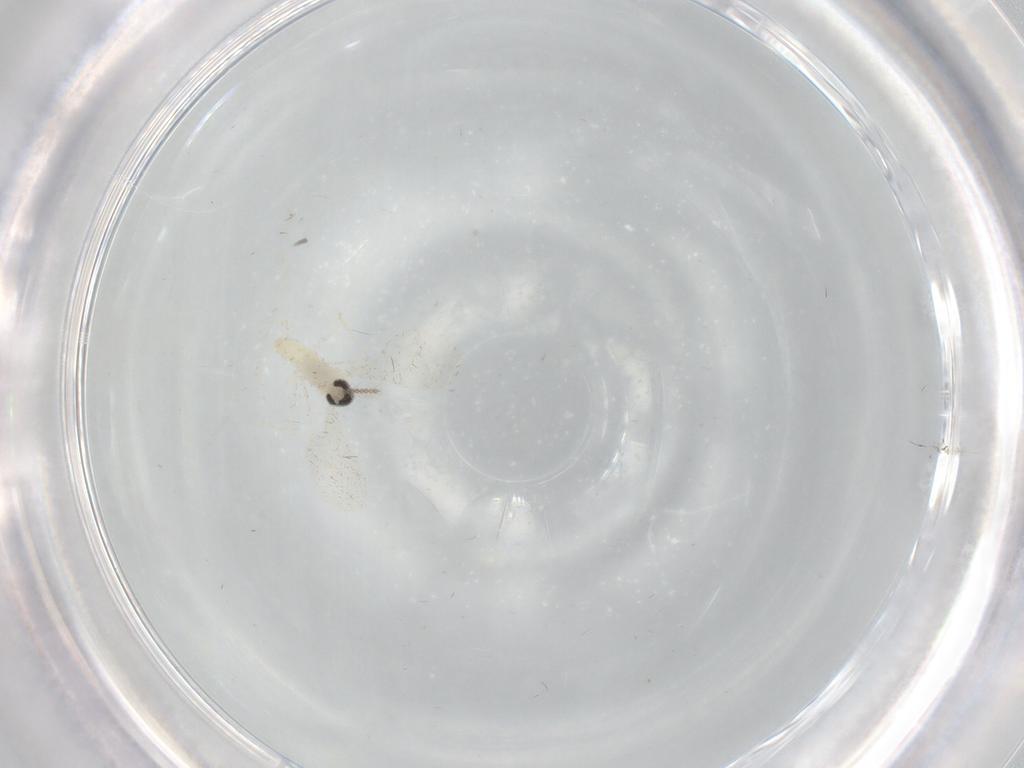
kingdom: Animalia
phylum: Arthropoda
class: Insecta
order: Diptera
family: Cecidomyiidae
